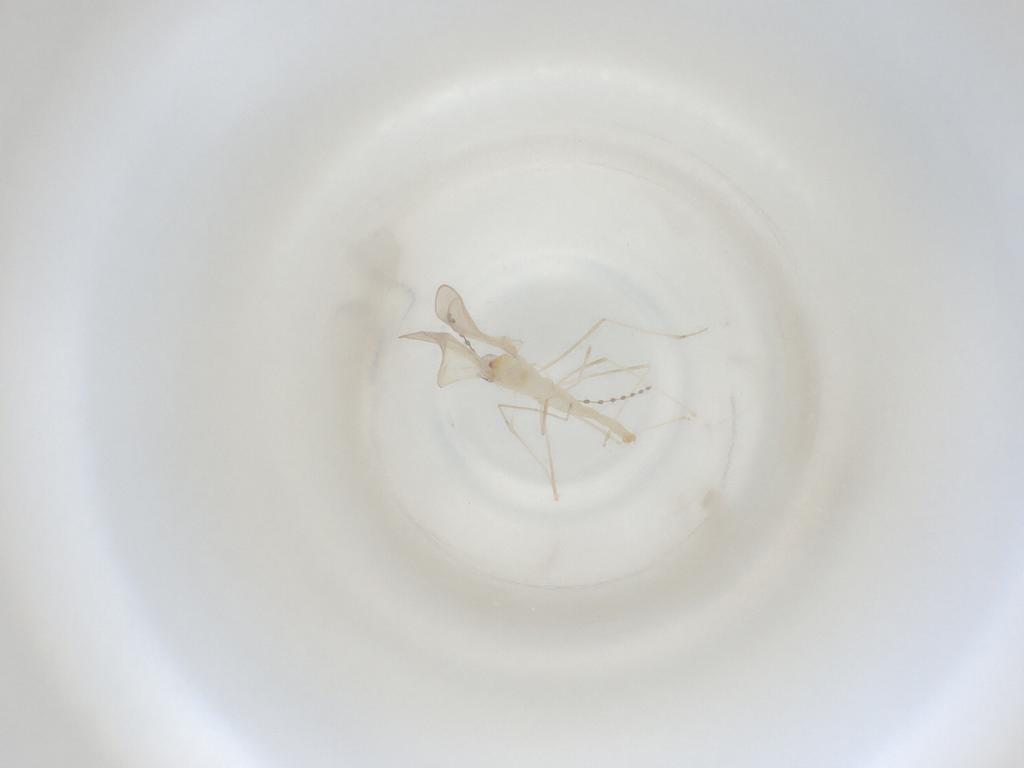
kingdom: Animalia
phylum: Arthropoda
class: Insecta
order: Diptera
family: Cecidomyiidae
